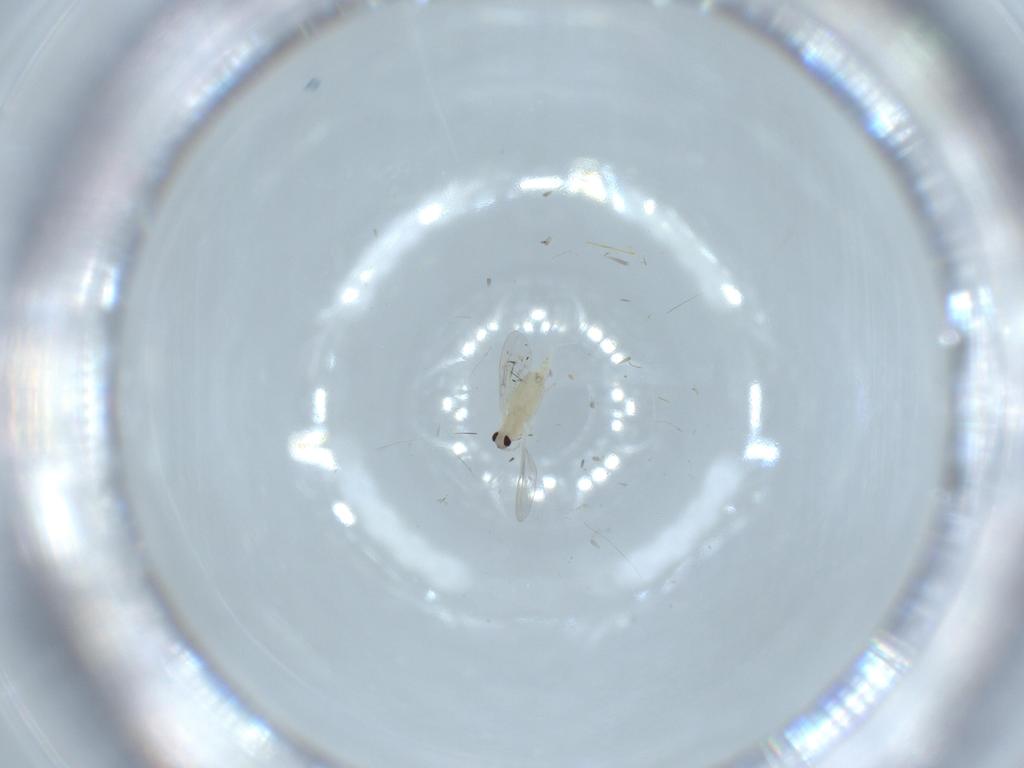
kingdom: Animalia
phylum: Arthropoda
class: Insecta
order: Diptera
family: Cecidomyiidae
